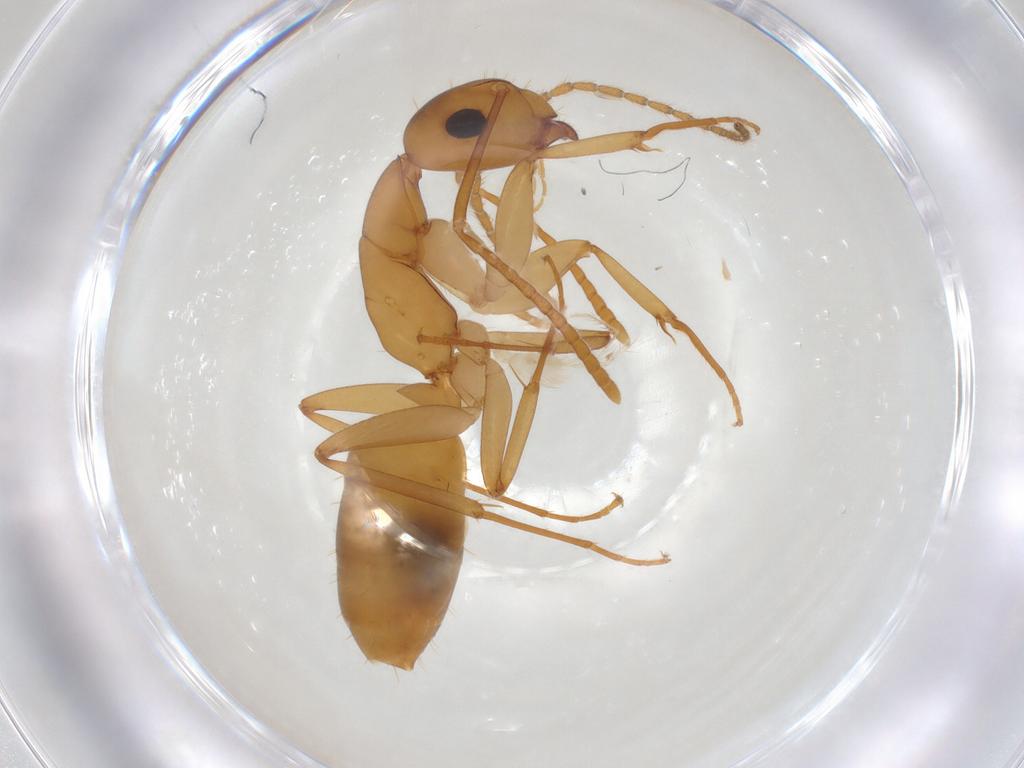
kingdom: Animalia
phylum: Arthropoda
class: Insecta
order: Hymenoptera
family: Formicidae
